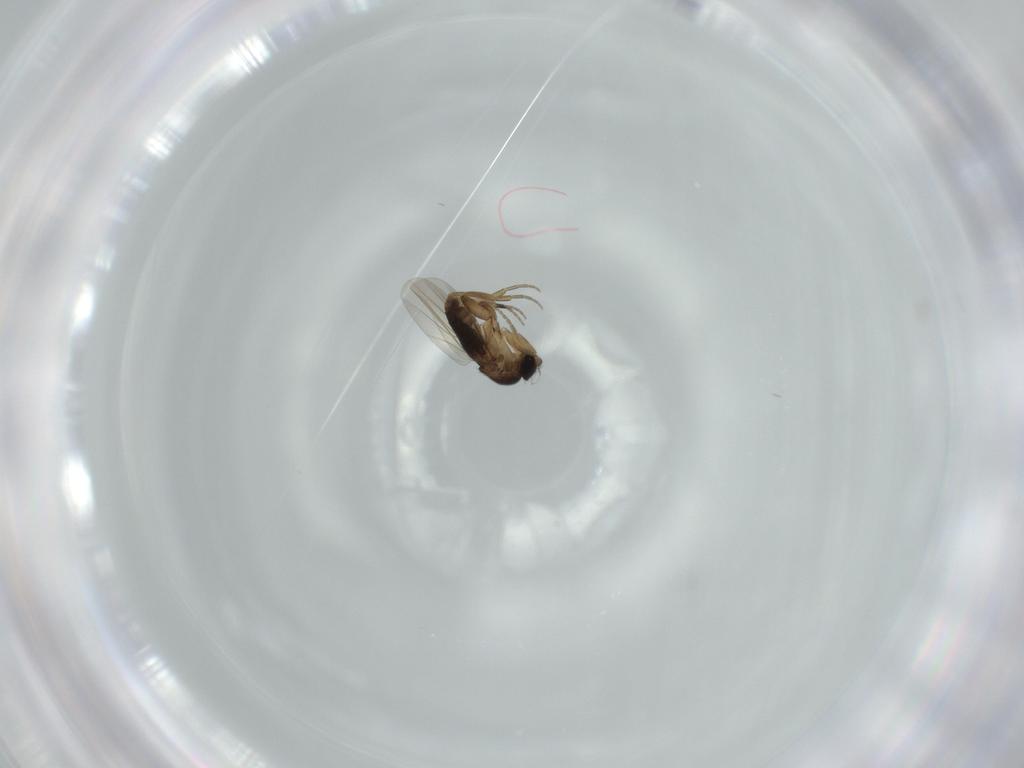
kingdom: Animalia
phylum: Arthropoda
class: Insecta
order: Diptera
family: Phoridae
